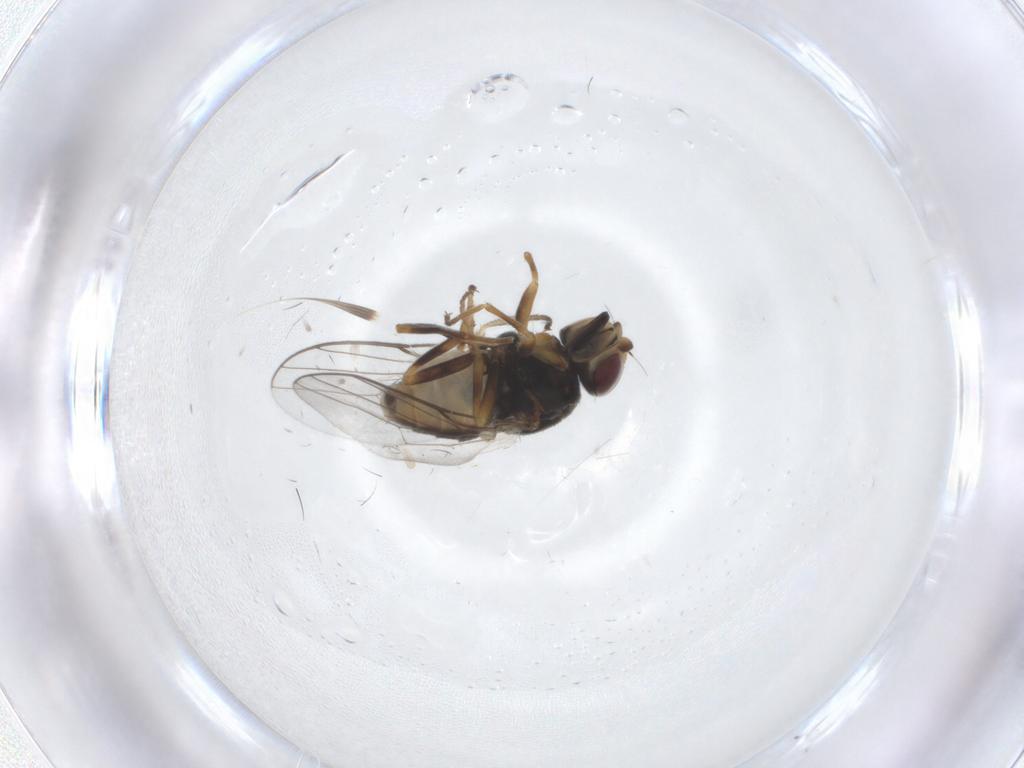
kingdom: Animalia
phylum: Arthropoda
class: Insecta
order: Diptera
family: Chloropidae
